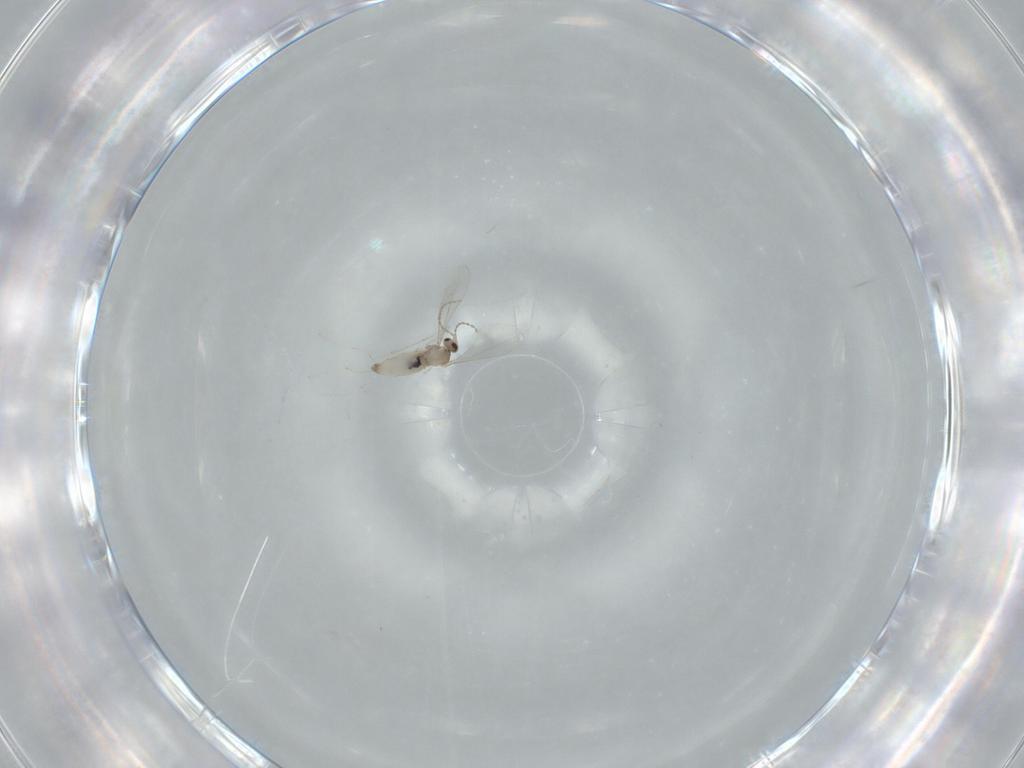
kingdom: Animalia
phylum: Arthropoda
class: Insecta
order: Diptera
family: Cecidomyiidae
